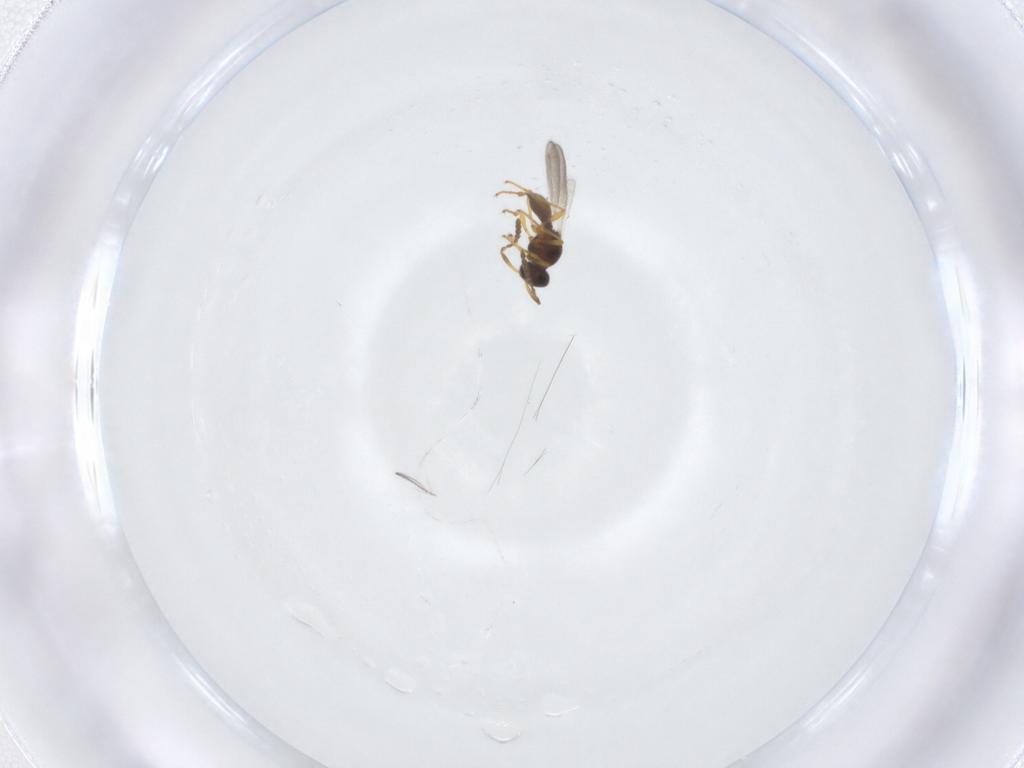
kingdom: Animalia
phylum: Arthropoda
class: Insecta
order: Hymenoptera
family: Platygastridae
